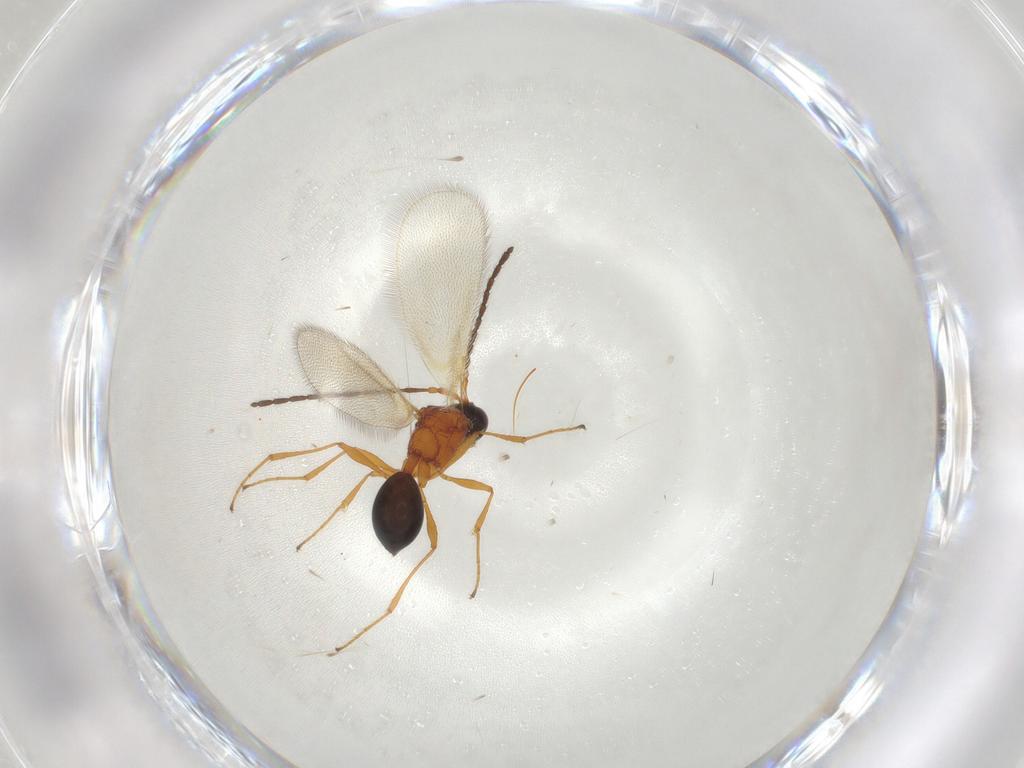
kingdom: Animalia
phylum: Arthropoda
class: Insecta
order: Hymenoptera
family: Diapriidae
